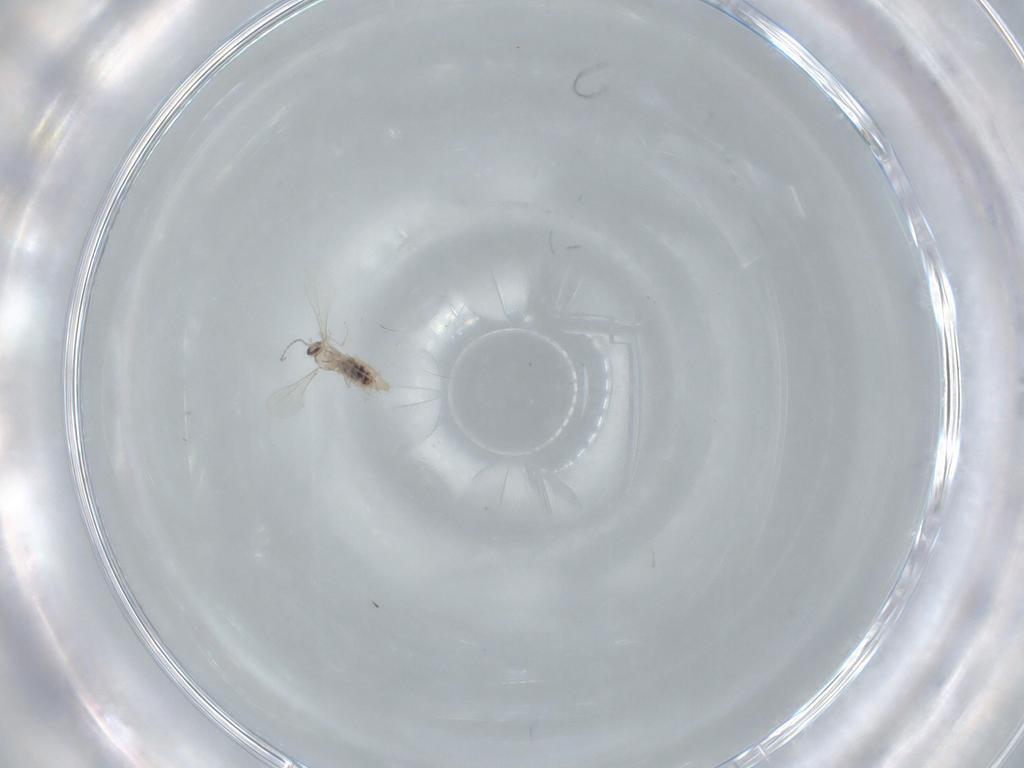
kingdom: Animalia
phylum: Arthropoda
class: Insecta
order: Diptera
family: Cecidomyiidae
